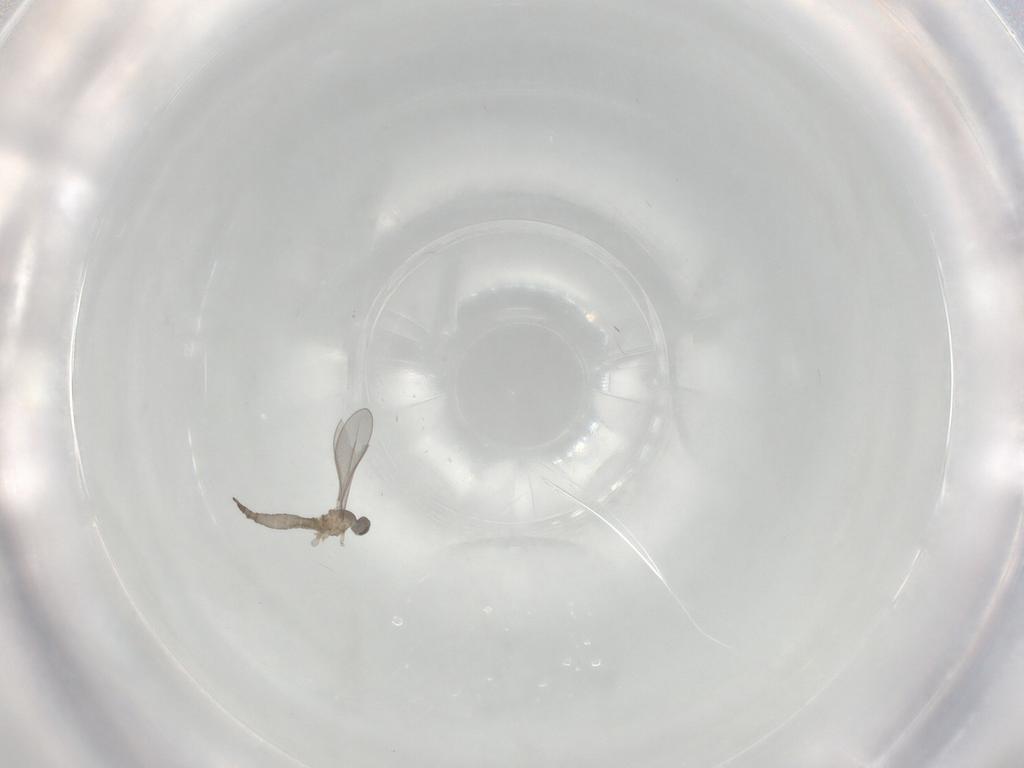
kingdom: Animalia
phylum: Arthropoda
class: Insecta
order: Diptera
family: Cecidomyiidae
